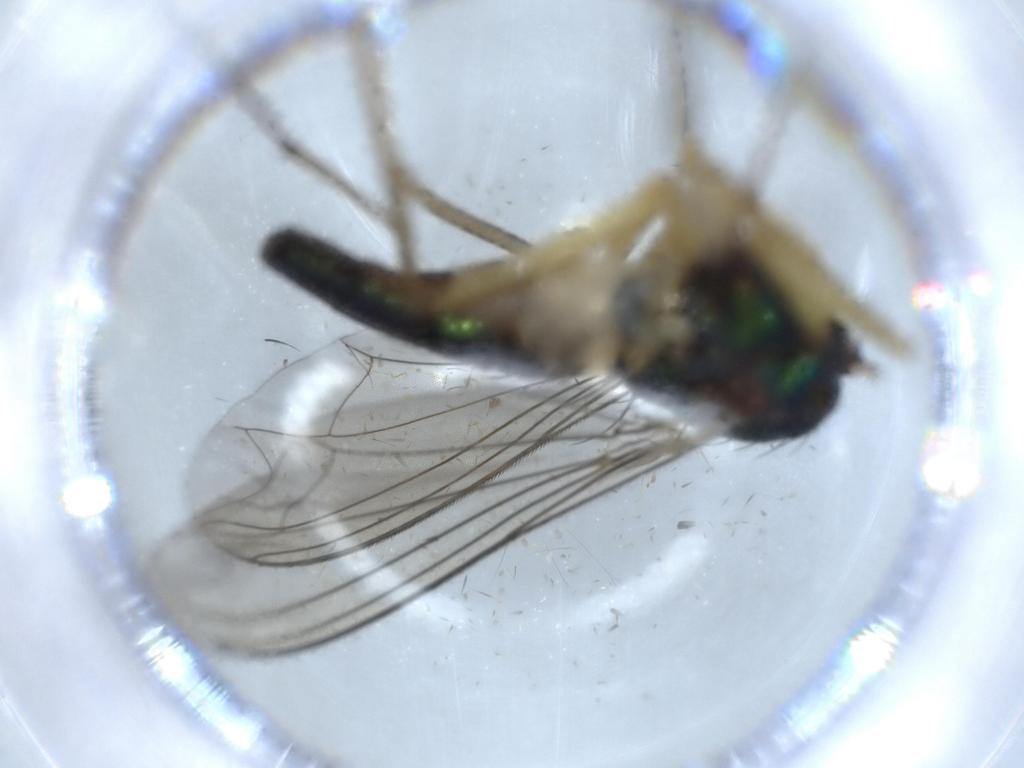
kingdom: Animalia
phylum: Arthropoda
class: Insecta
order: Diptera
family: Dolichopodidae
